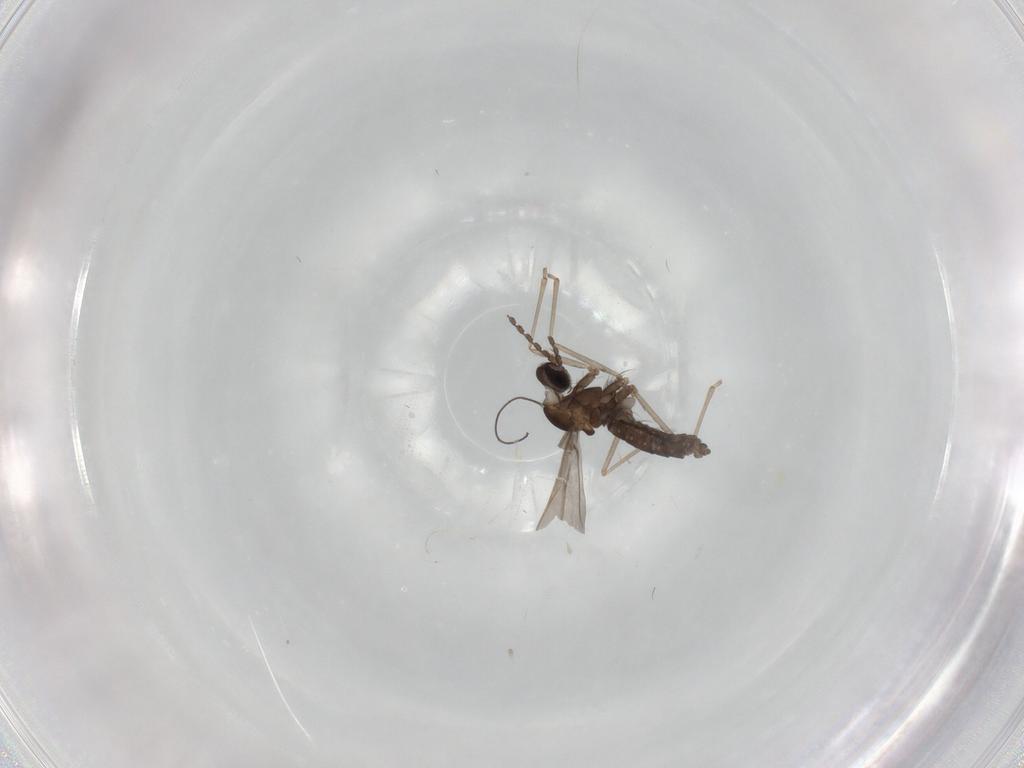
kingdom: Animalia
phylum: Arthropoda
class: Insecta
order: Diptera
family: Cecidomyiidae
